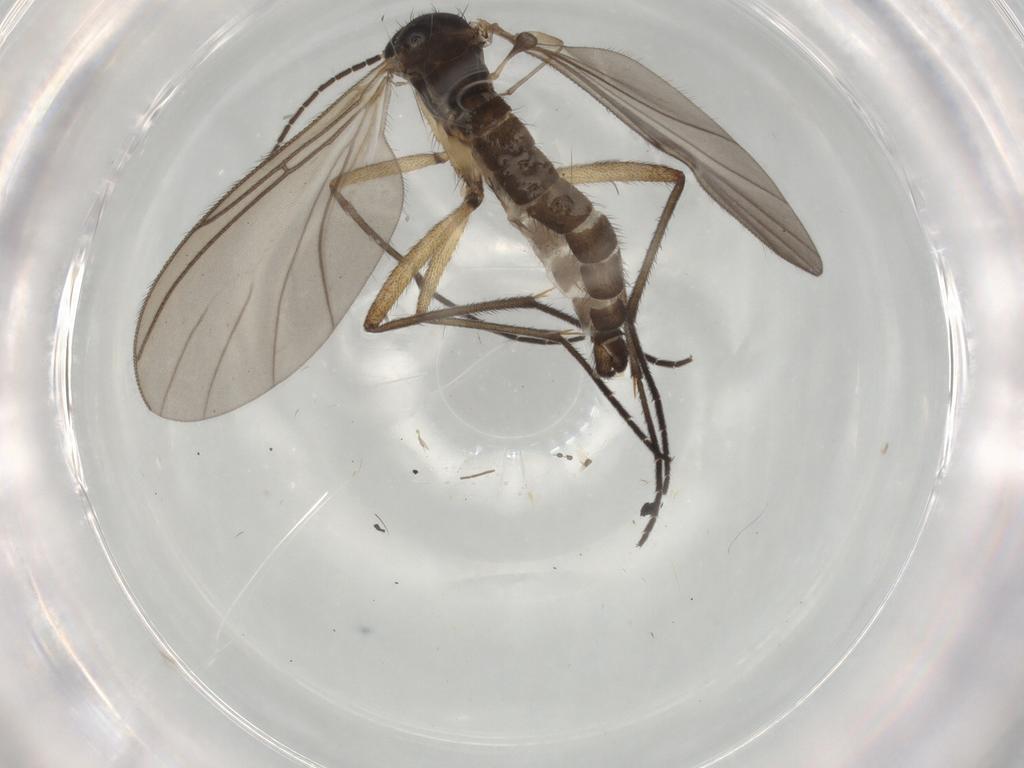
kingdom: Animalia
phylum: Arthropoda
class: Insecta
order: Diptera
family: Sciaridae
